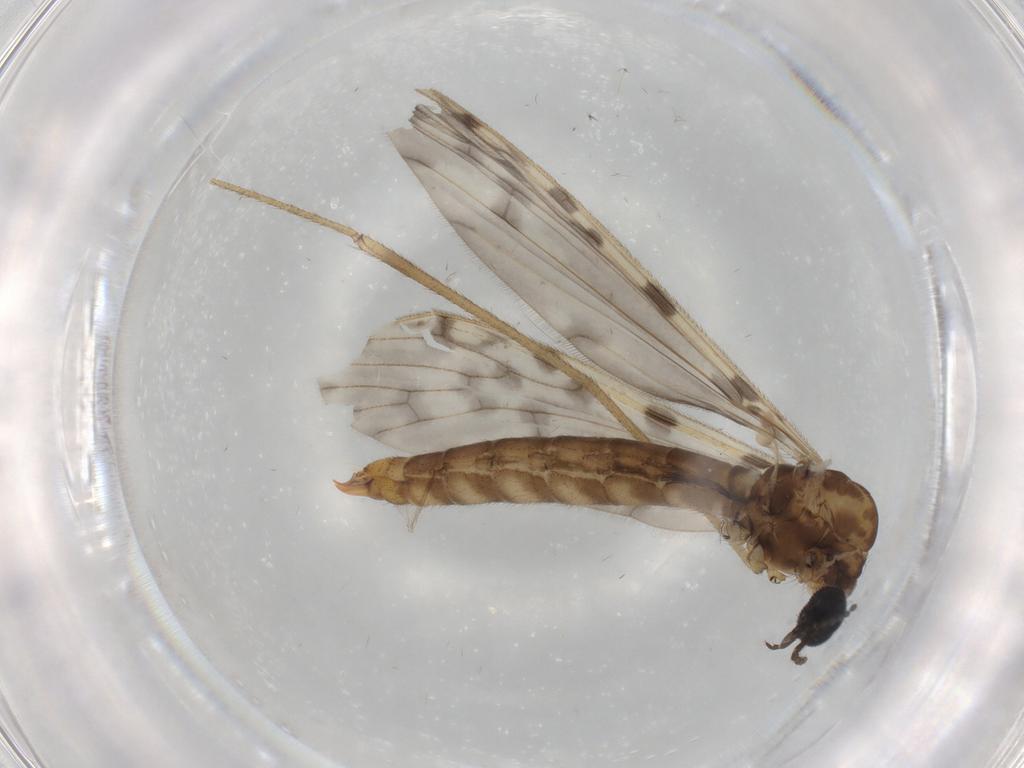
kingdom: Animalia
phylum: Arthropoda
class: Insecta
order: Diptera
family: Limoniidae
